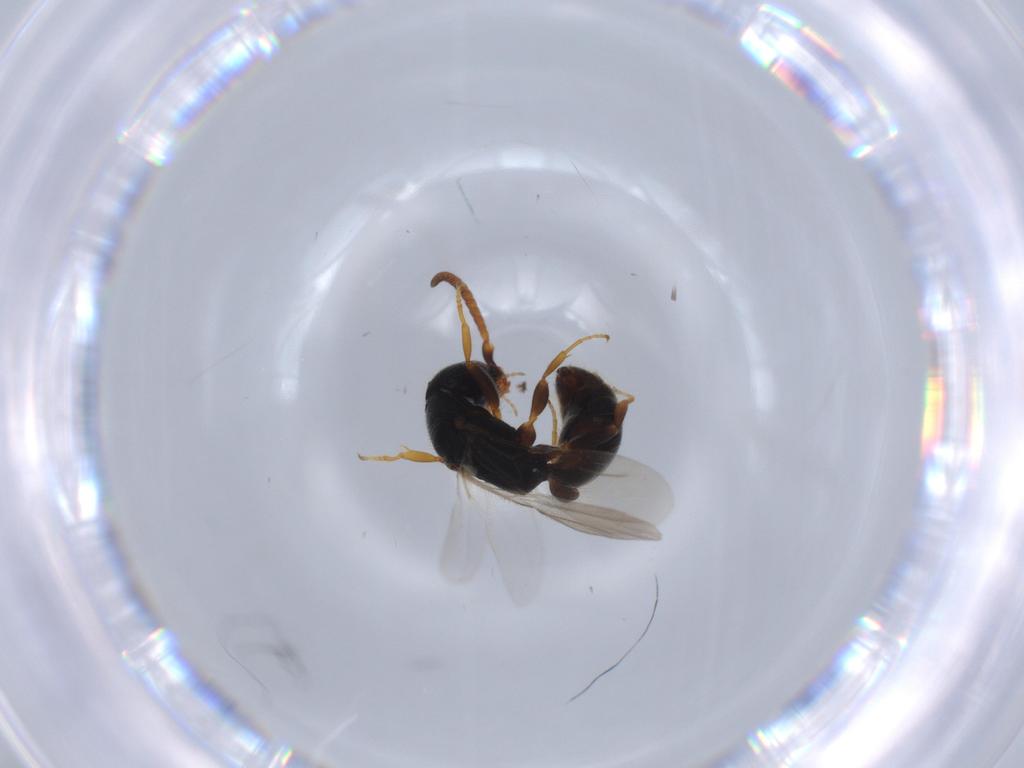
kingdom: Animalia
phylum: Arthropoda
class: Insecta
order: Hymenoptera
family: Bethylidae
